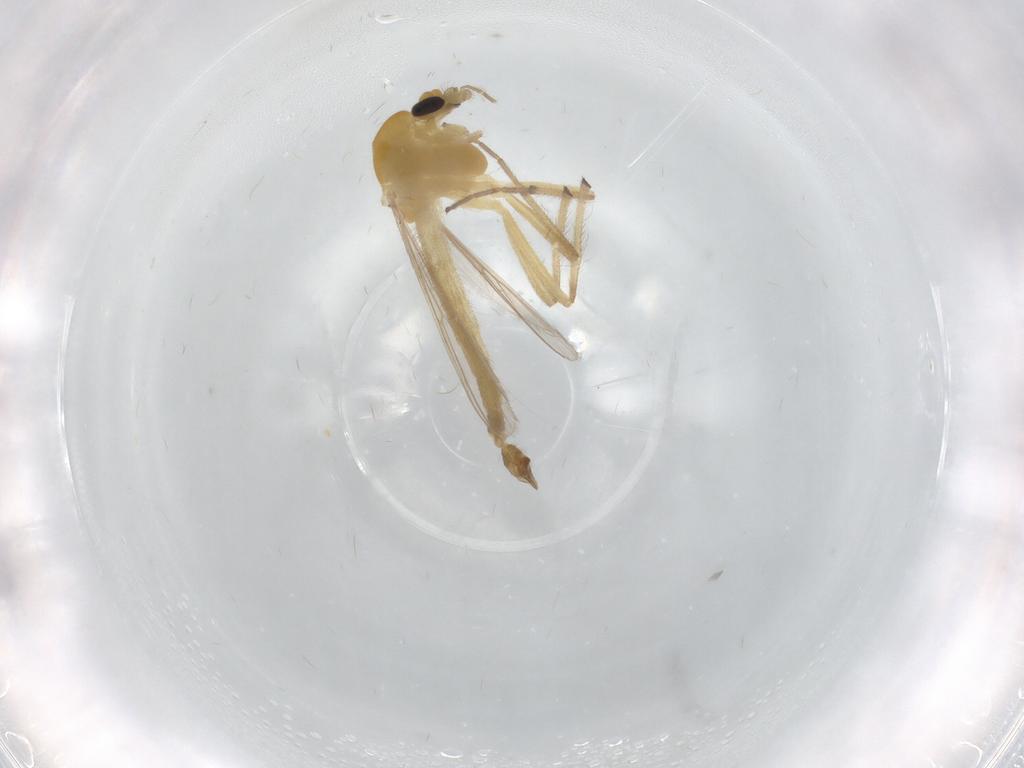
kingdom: Animalia
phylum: Arthropoda
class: Insecta
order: Diptera
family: Chironomidae
